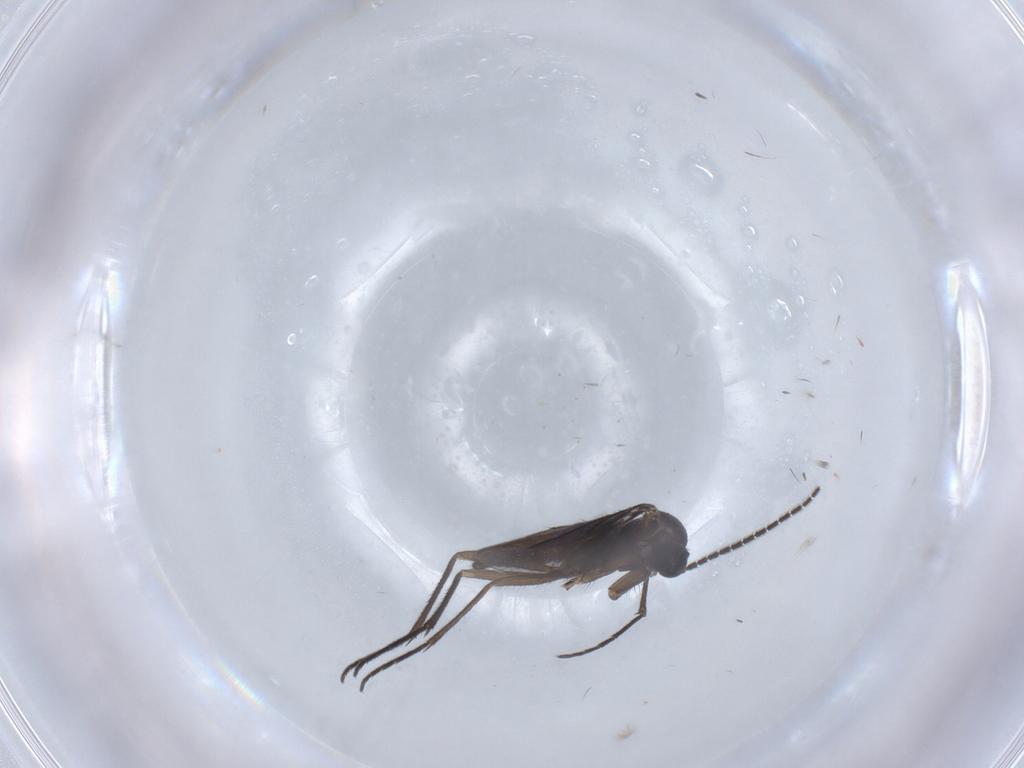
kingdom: Animalia
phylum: Arthropoda
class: Insecta
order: Diptera
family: Sciaridae
